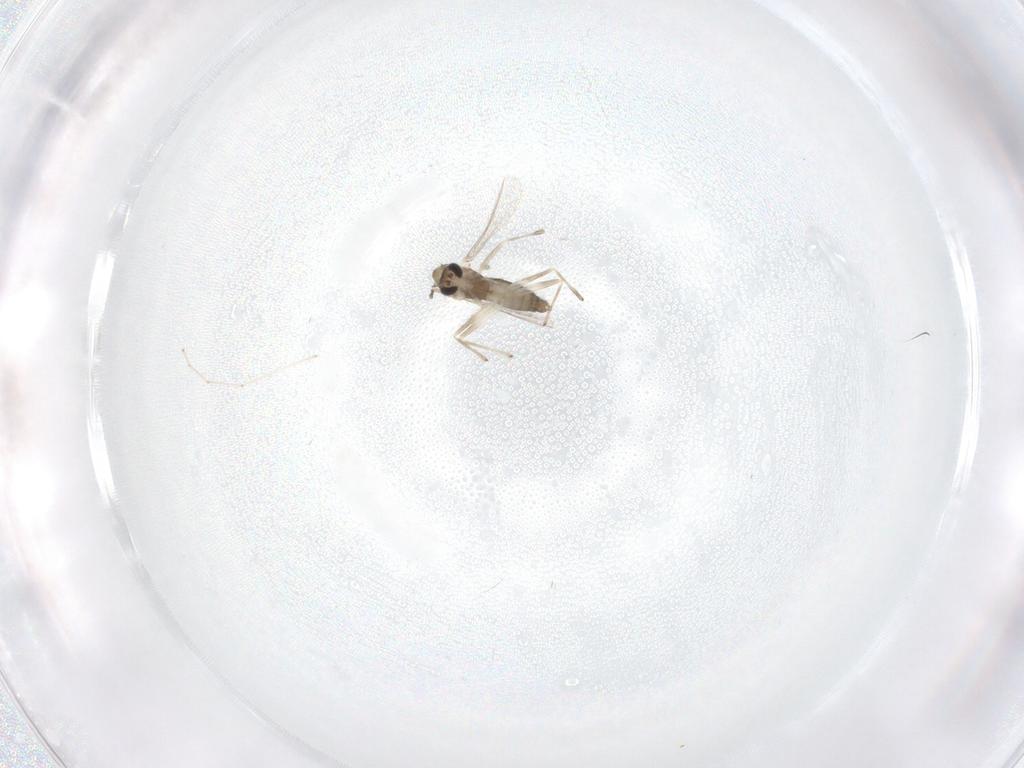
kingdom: Animalia
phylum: Arthropoda
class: Insecta
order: Diptera
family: Chironomidae
